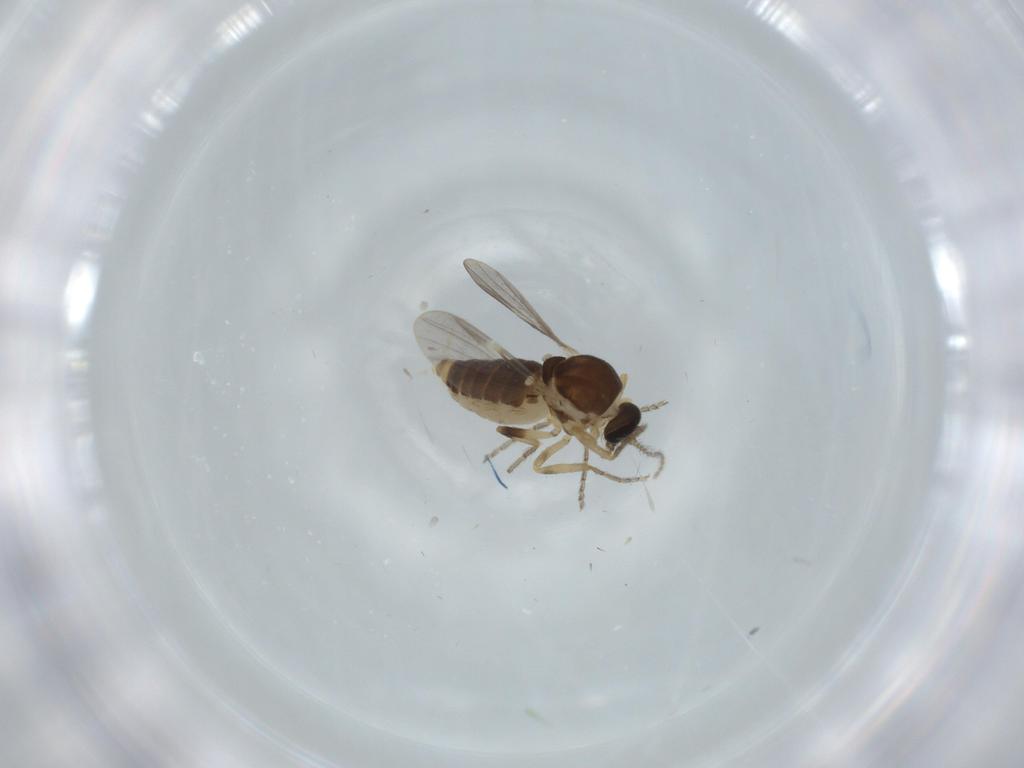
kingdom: Animalia
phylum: Arthropoda
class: Insecta
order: Diptera
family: Ceratopogonidae
